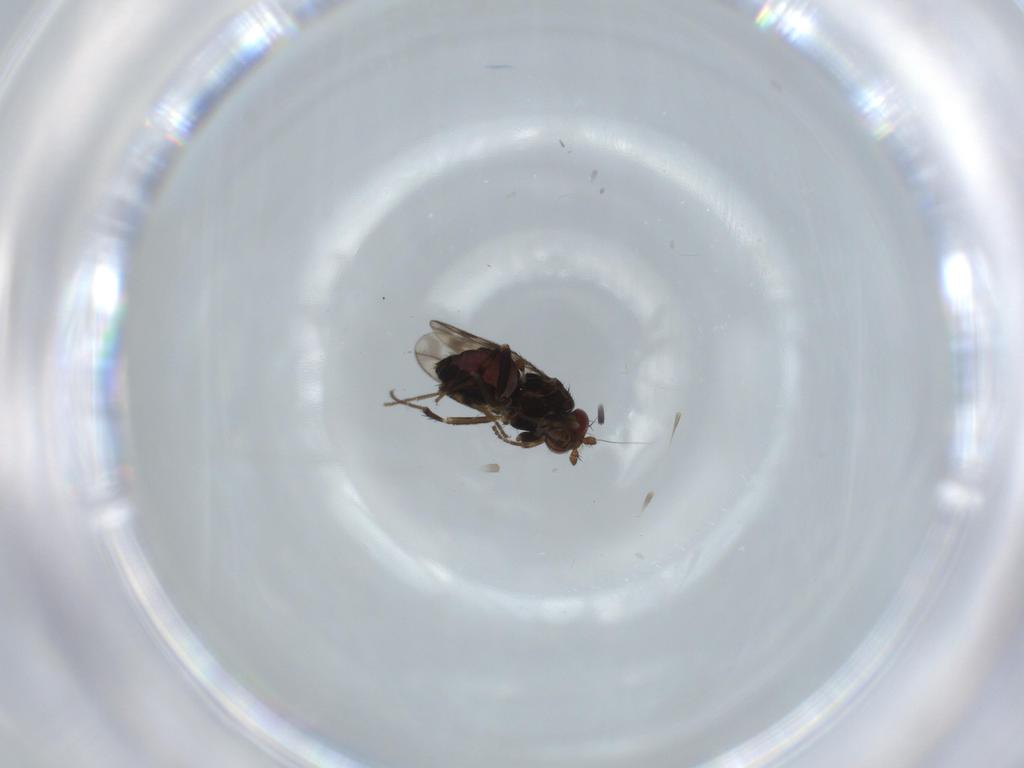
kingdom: Animalia
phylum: Arthropoda
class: Insecta
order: Diptera
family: Sphaeroceridae
